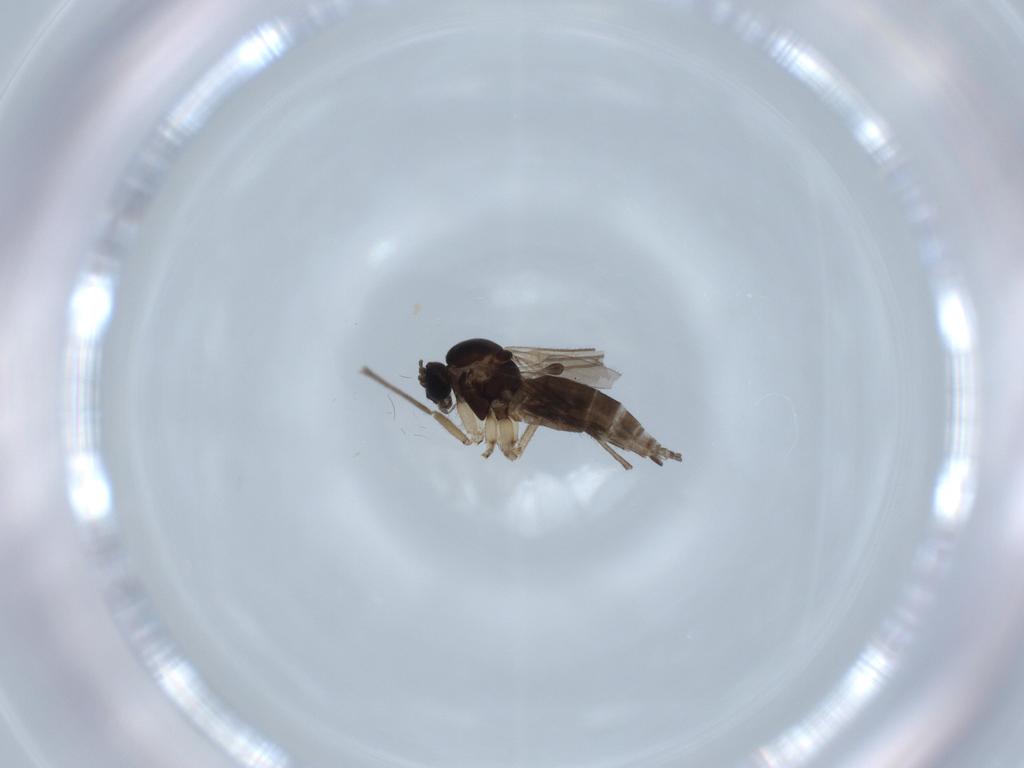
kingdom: Animalia
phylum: Arthropoda
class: Insecta
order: Diptera
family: Sciaridae
